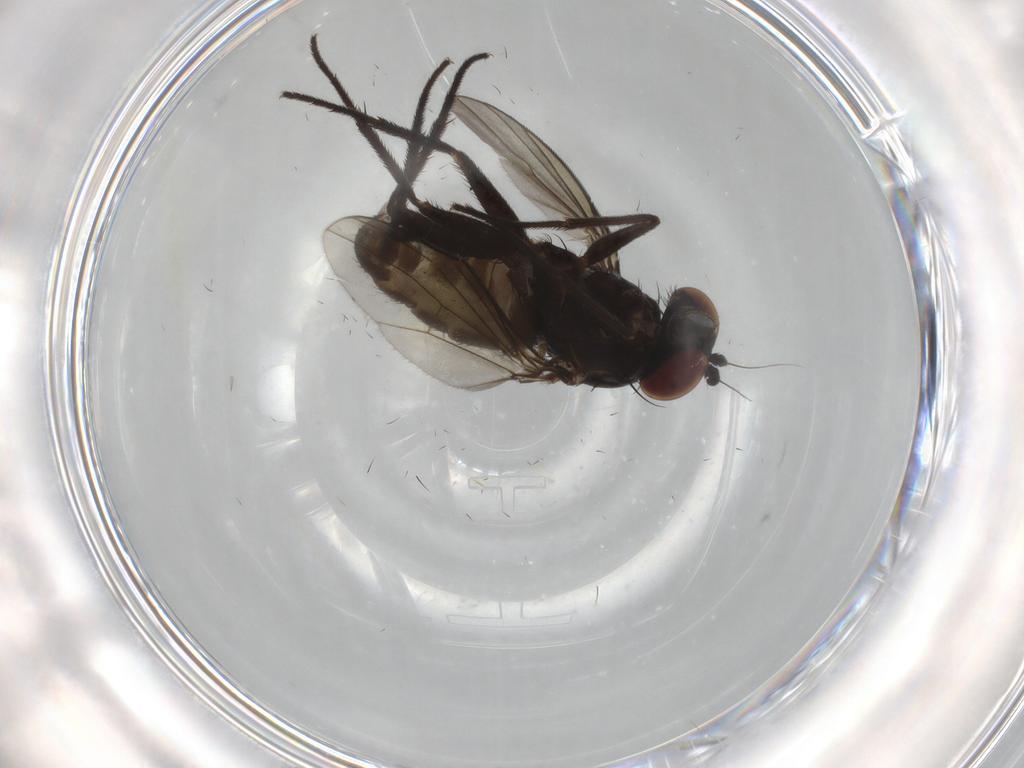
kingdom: Animalia
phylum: Arthropoda
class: Insecta
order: Diptera
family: Dolichopodidae
